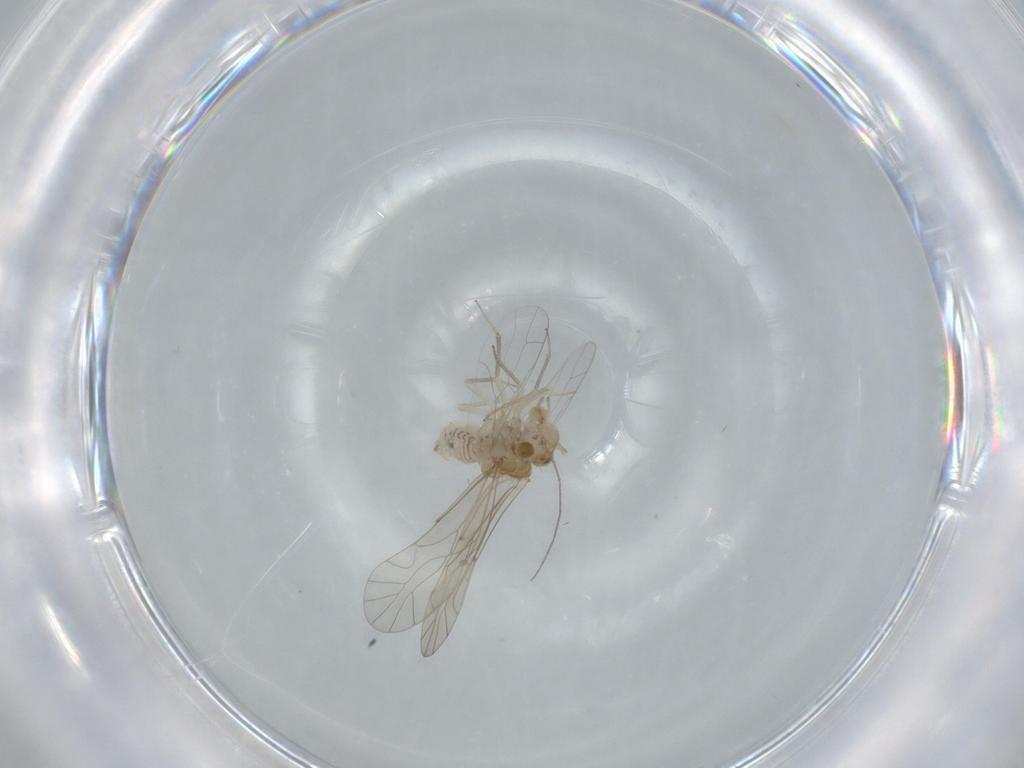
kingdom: Animalia
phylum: Arthropoda
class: Insecta
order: Psocodea
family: Lachesillidae
